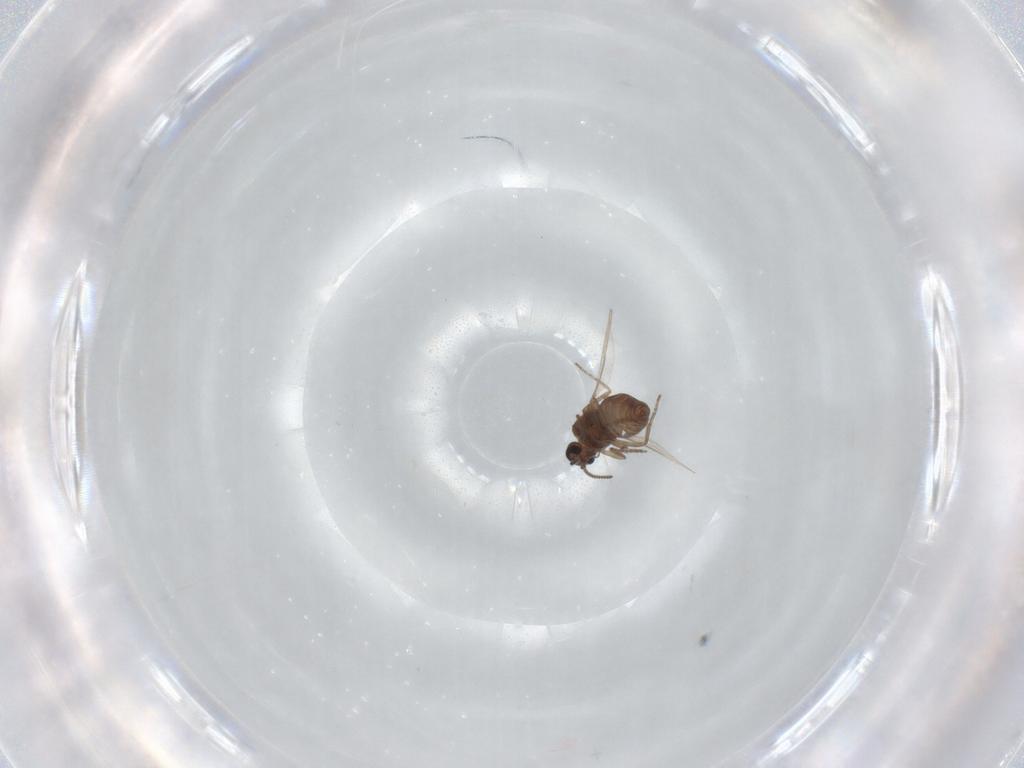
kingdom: Animalia
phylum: Arthropoda
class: Insecta
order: Diptera
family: Ceratopogonidae
